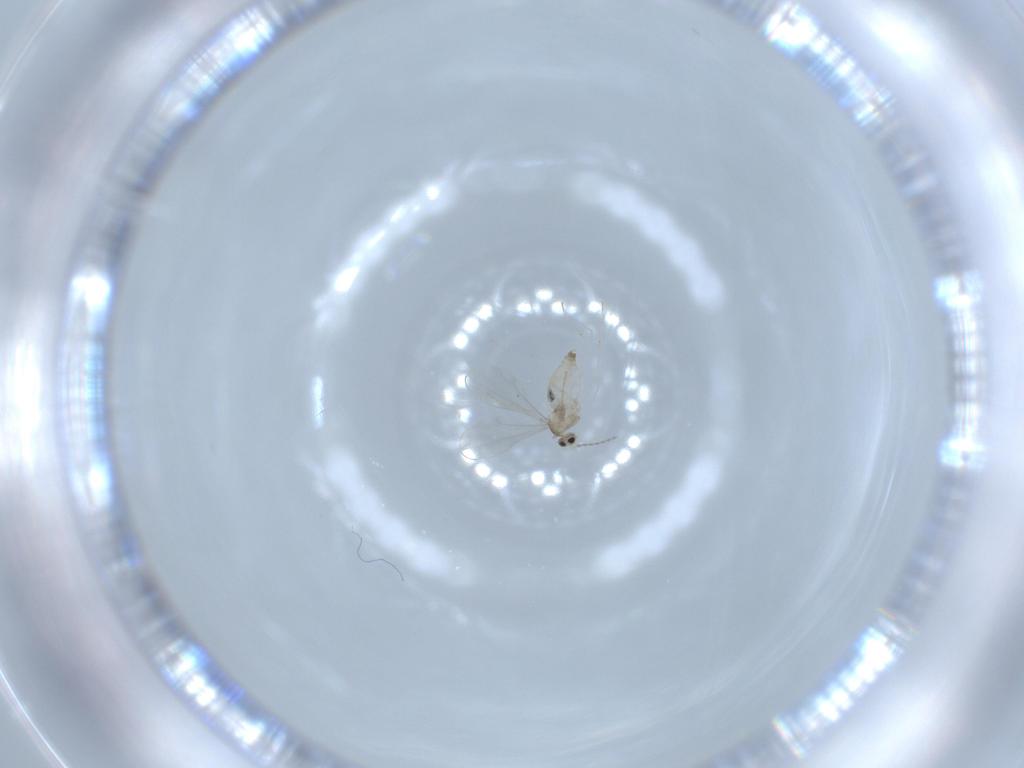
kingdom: Animalia
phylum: Arthropoda
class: Insecta
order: Diptera
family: Cecidomyiidae
